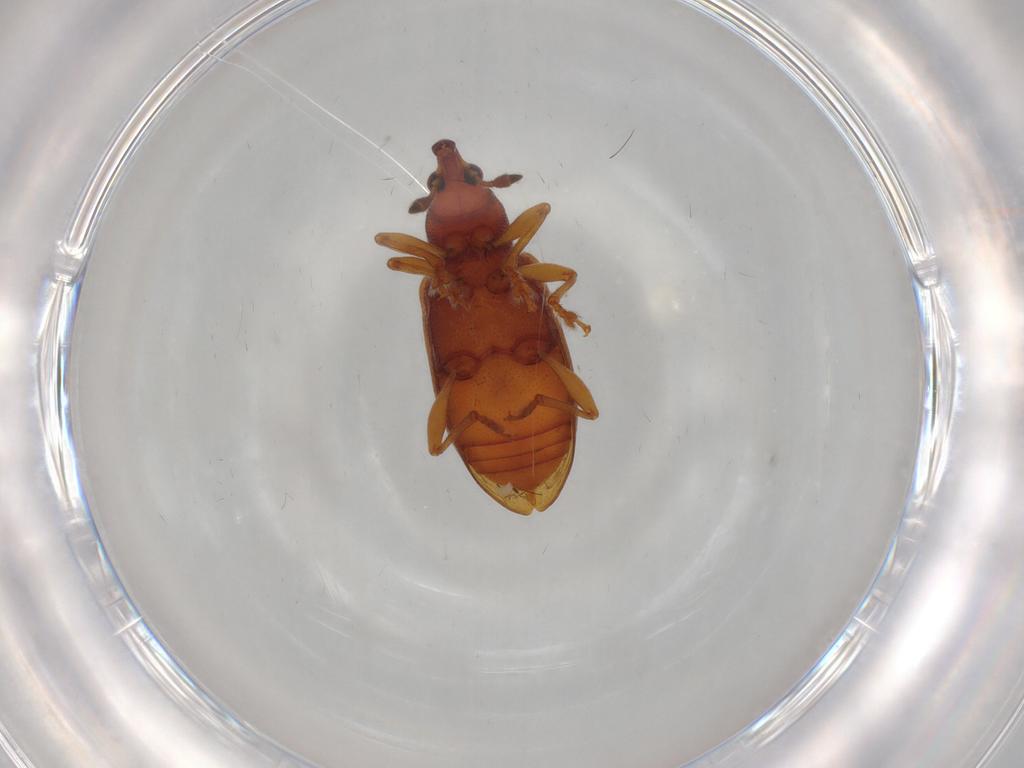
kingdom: Animalia
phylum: Arthropoda
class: Insecta
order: Coleoptera
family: Curculionidae
